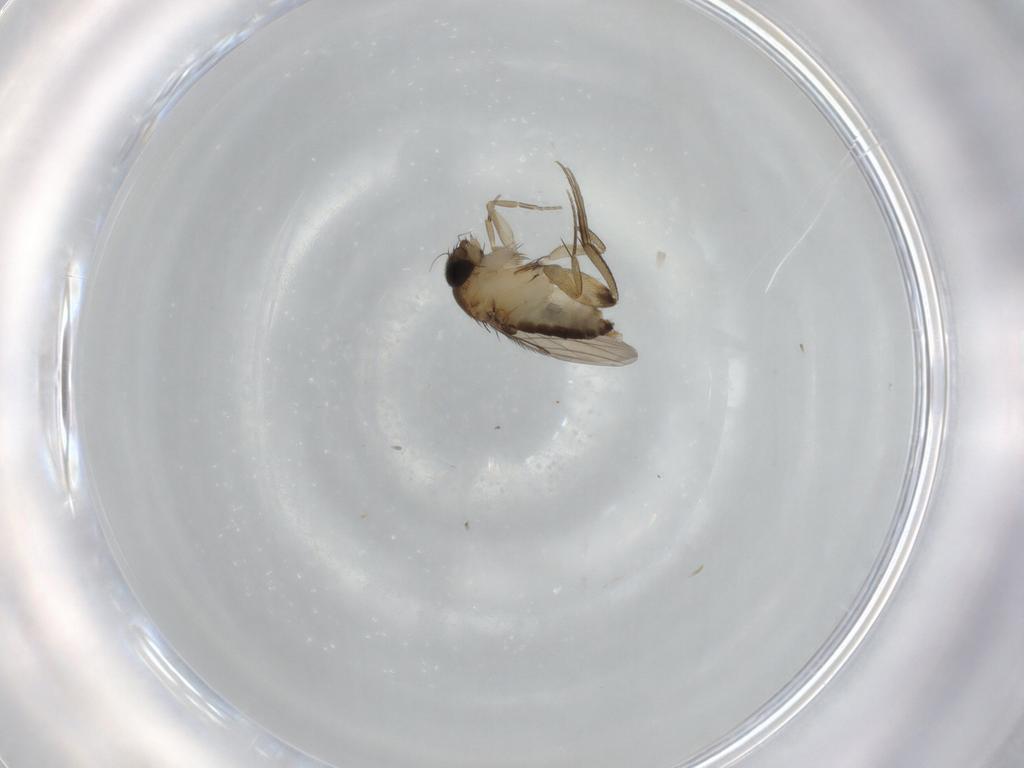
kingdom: Animalia
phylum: Arthropoda
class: Insecta
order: Diptera
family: Phoridae
